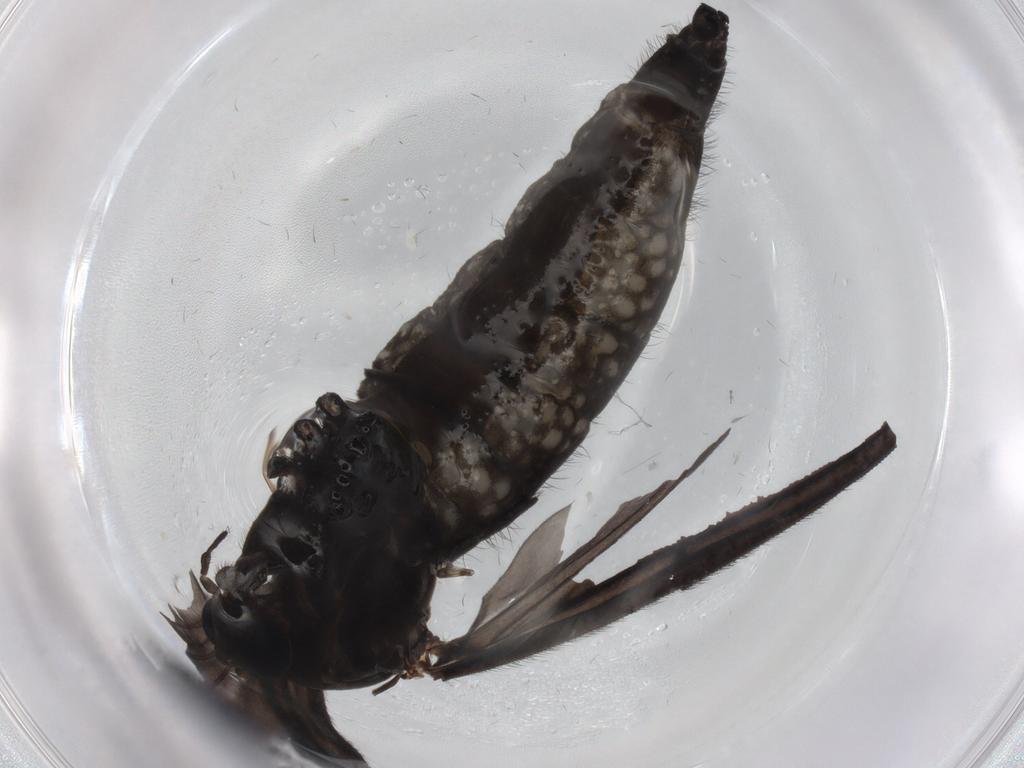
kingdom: Animalia
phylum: Arthropoda
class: Insecta
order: Diptera
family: Drosophilidae
